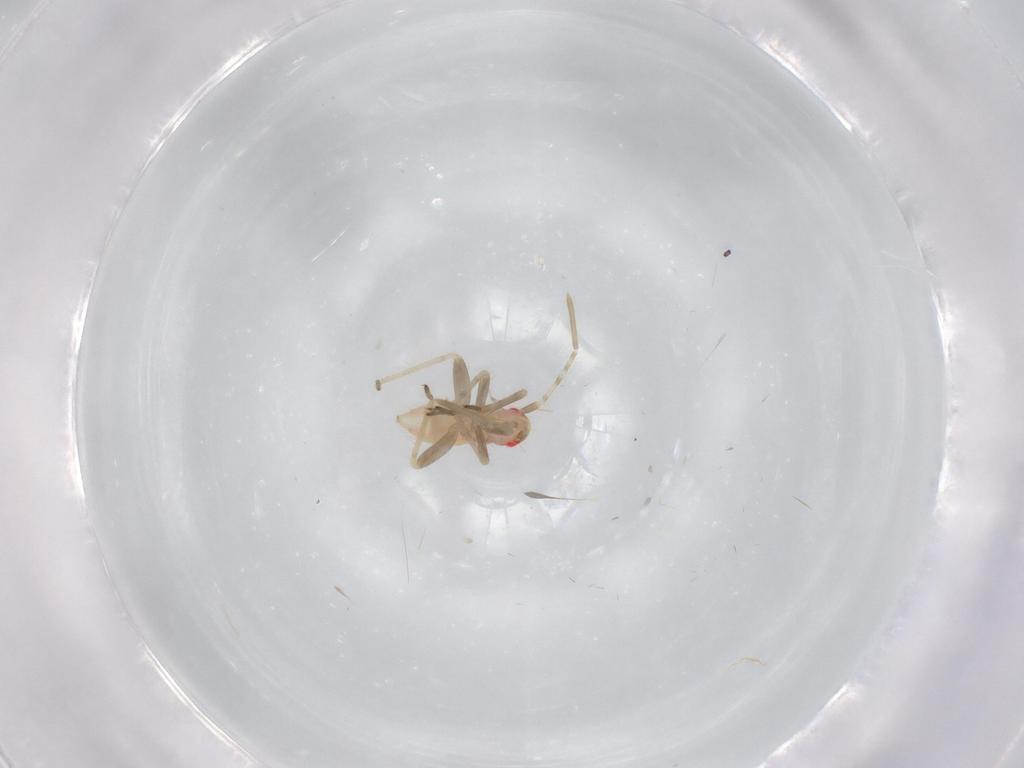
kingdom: Animalia
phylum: Arthropoda
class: Insecta
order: Hemiptera
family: Miridae
